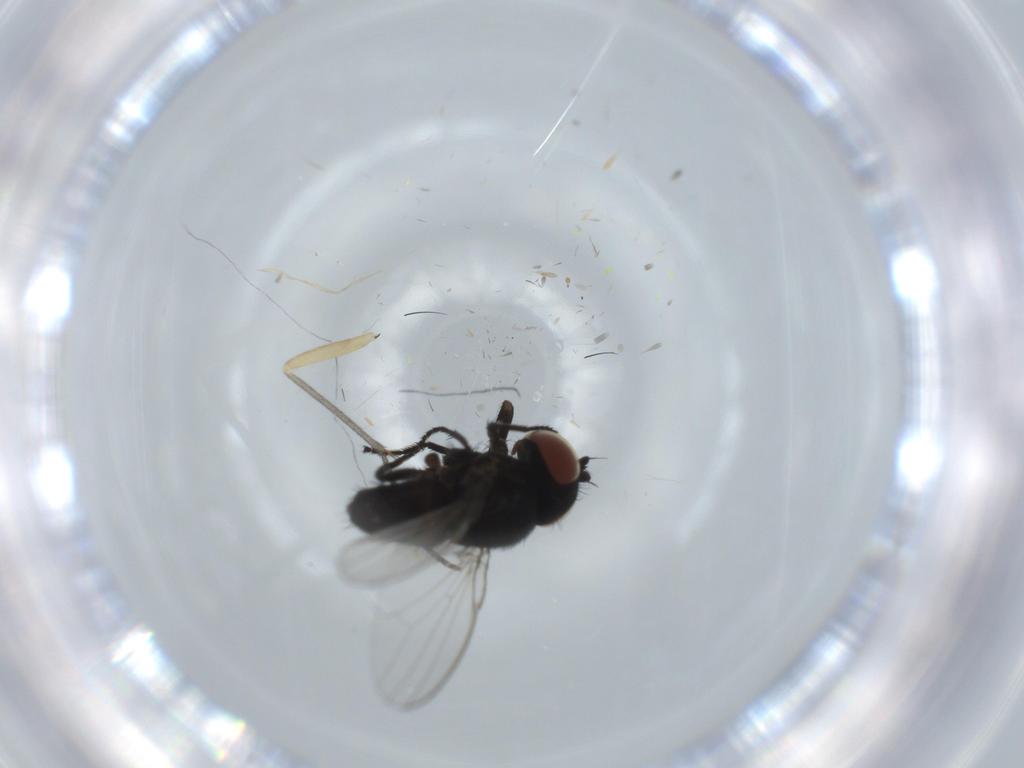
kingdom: Animalia
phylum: Arthropoda
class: Insecta
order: Diptera
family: Milichiidae
